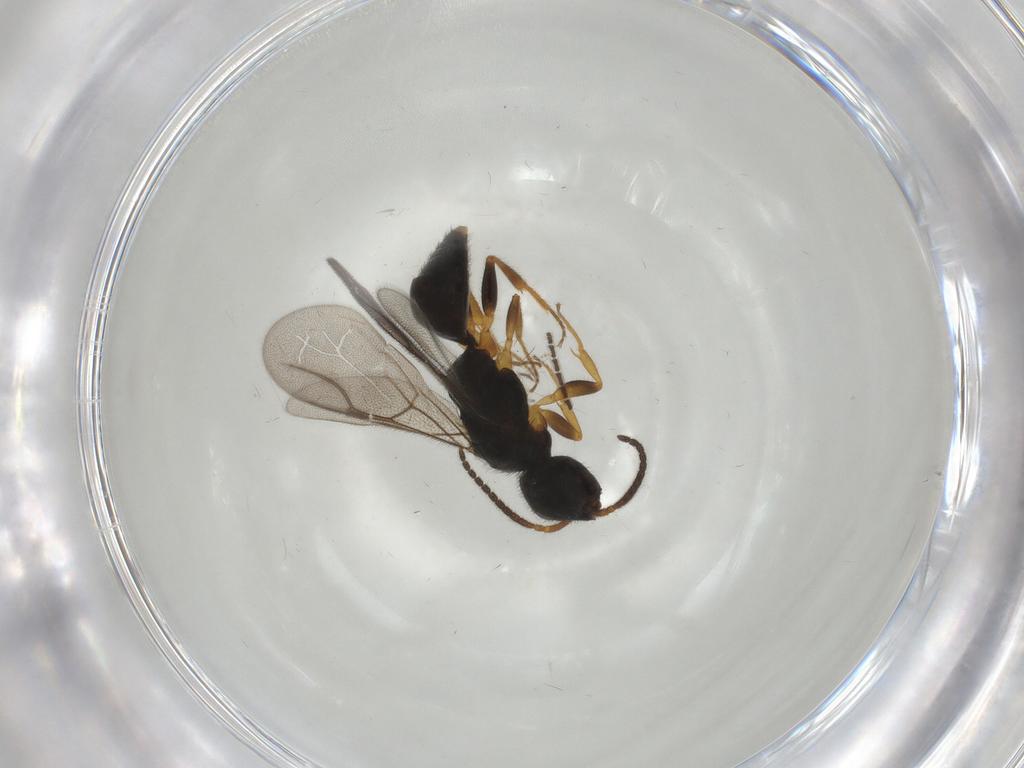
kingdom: Animalia
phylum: Arthropoda
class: Insecta
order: Hymenoptera
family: Bethylidae
